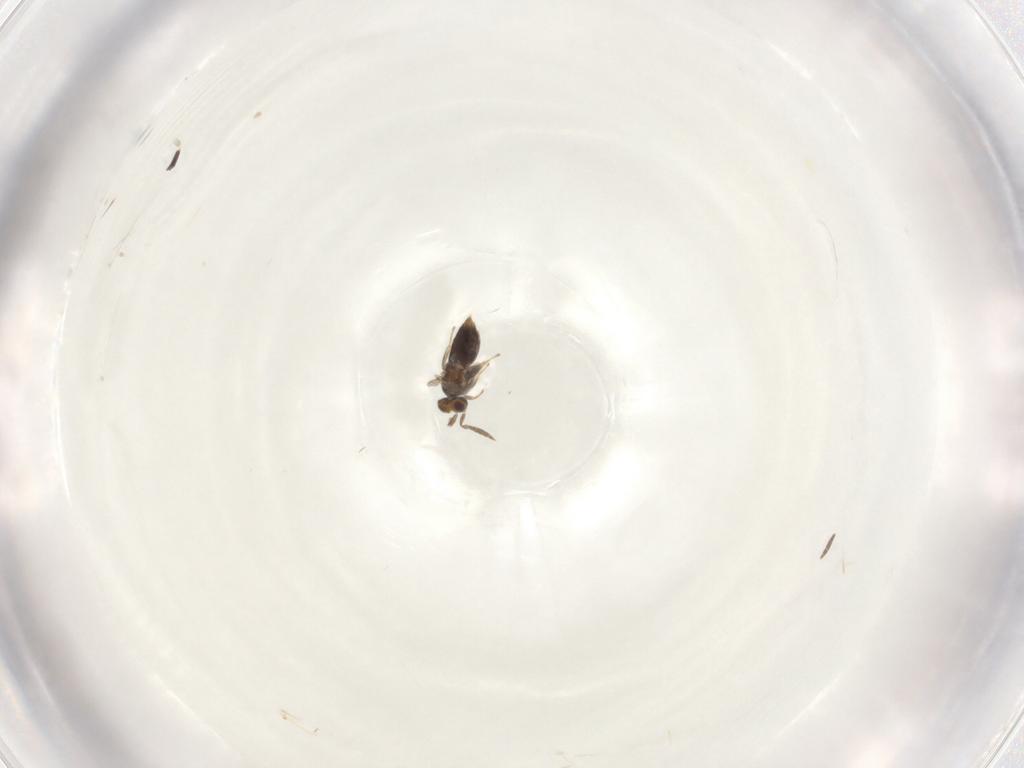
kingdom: Animalia
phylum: Arthropoda
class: Insecta
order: Hymenoptera
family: Aphelinidae
